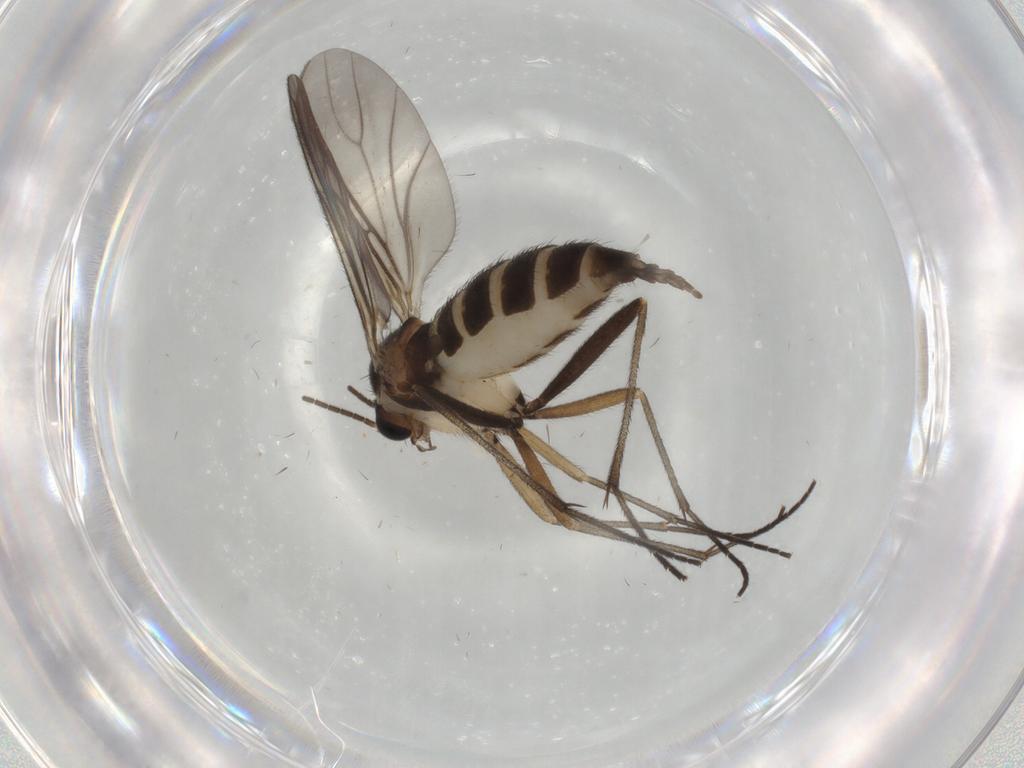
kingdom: Animalia
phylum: Arthropoda
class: Insecta
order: Diptera
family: Sciaridae
